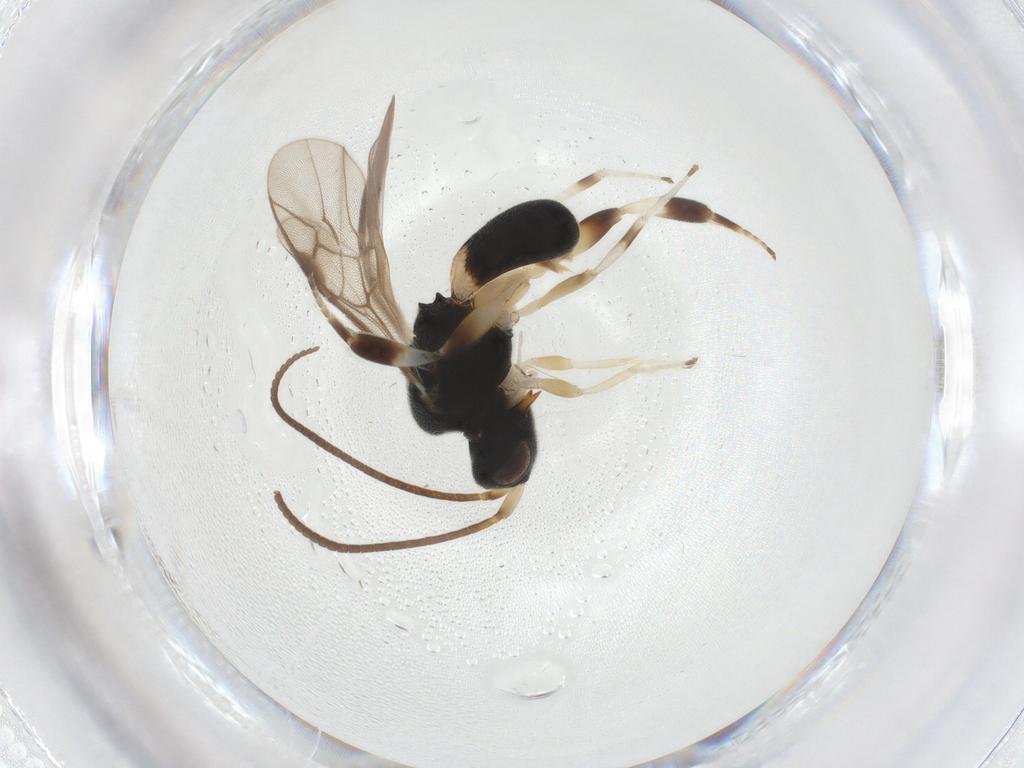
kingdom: Animalia
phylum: Arthropoda
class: Insecta
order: Hymenoptera
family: Braconidae
